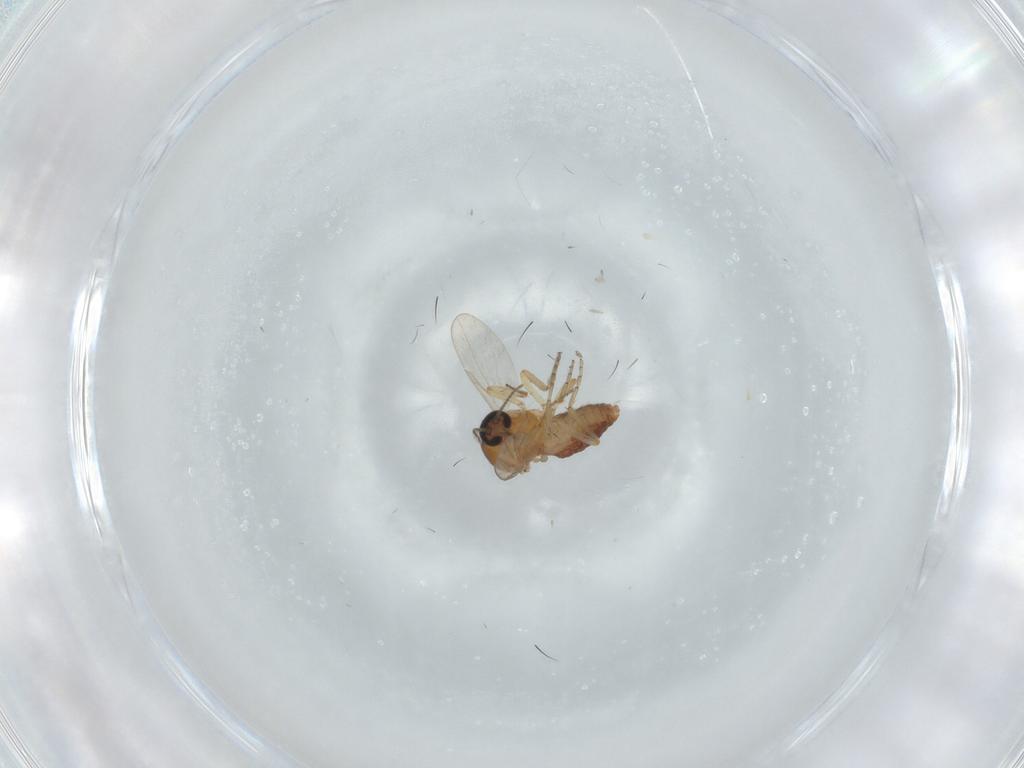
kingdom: Animalia
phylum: Arthropoda
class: Insecta
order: Diptera
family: Ceratopogonidae
